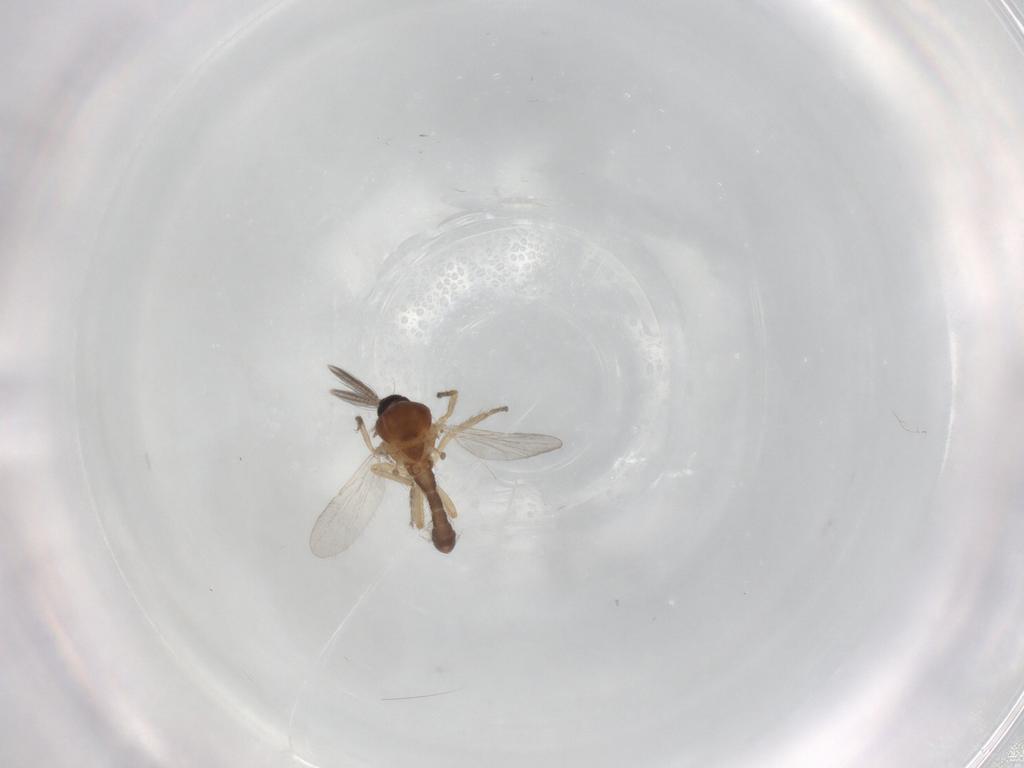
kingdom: Animalia
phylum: Arthropoda
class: Insecta
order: Diptera
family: Ceratopogonidae
